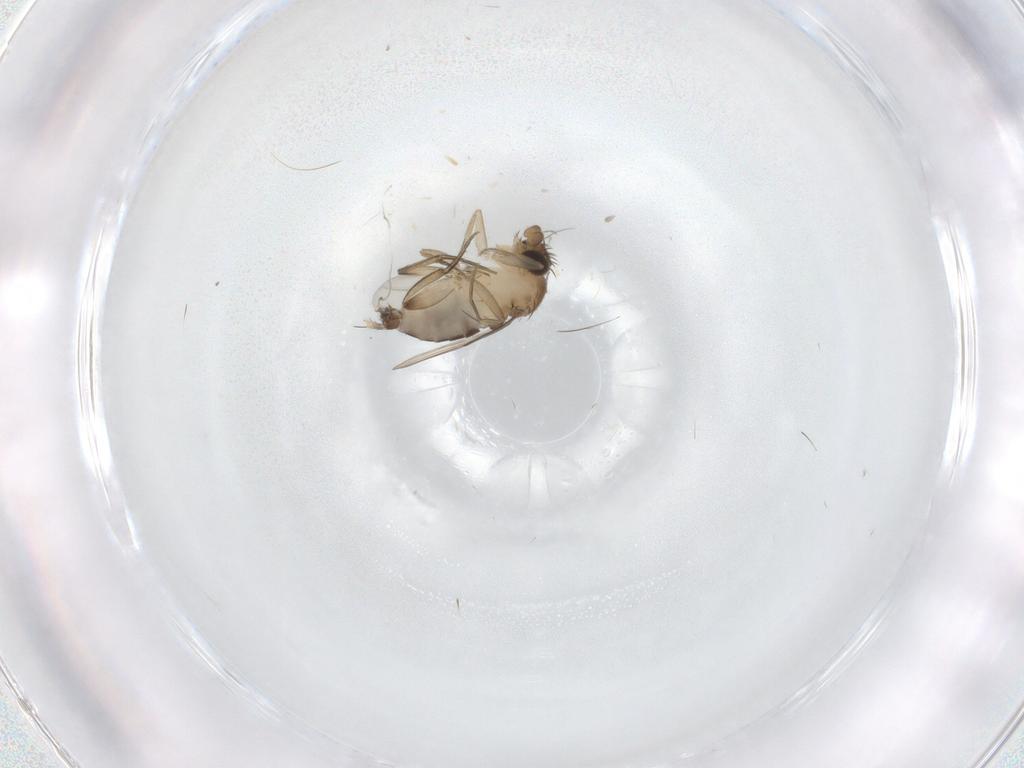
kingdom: Animalia
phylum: Arthropoda
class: Insecta
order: Diptera
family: Phoridae
